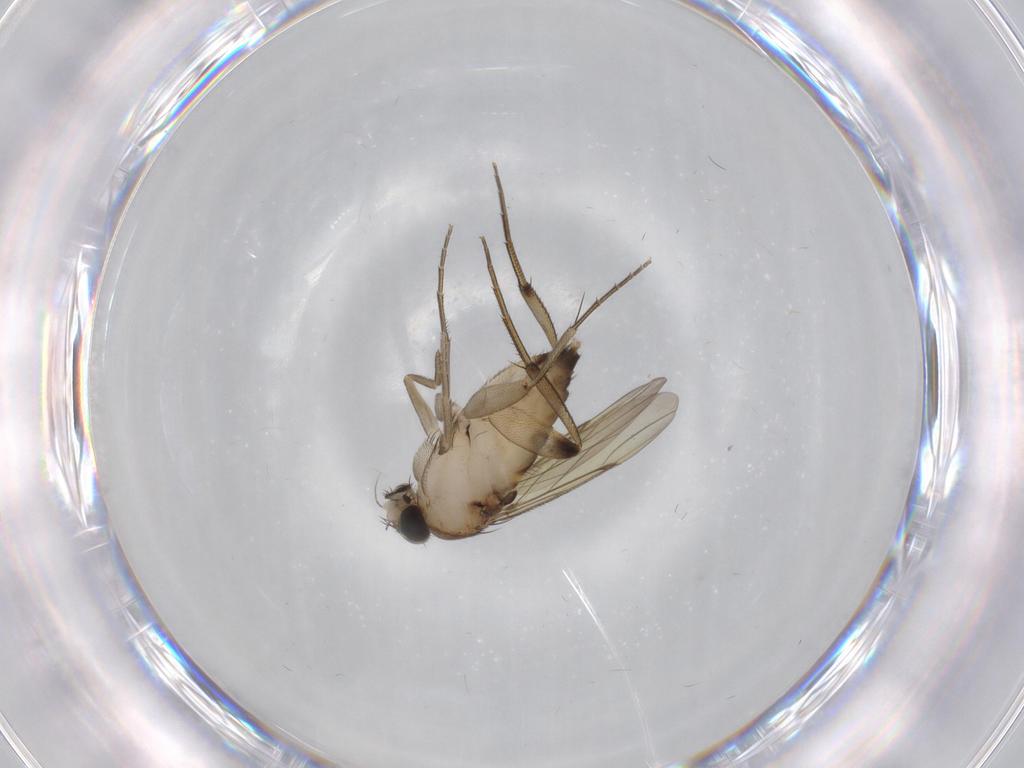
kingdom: Animalia
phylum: Arthropoda
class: Insecta
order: Diptera
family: Phoridae
